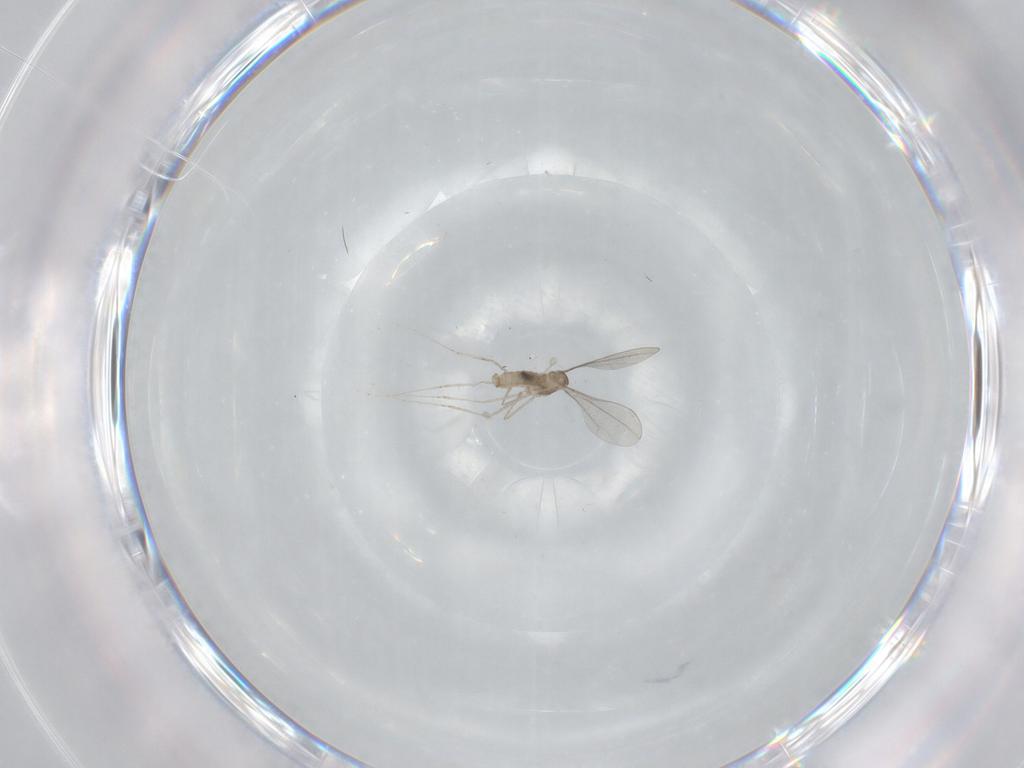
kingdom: Animalia
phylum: Arthropoda
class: Insecta
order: Diptera
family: Cecidomyiidae
